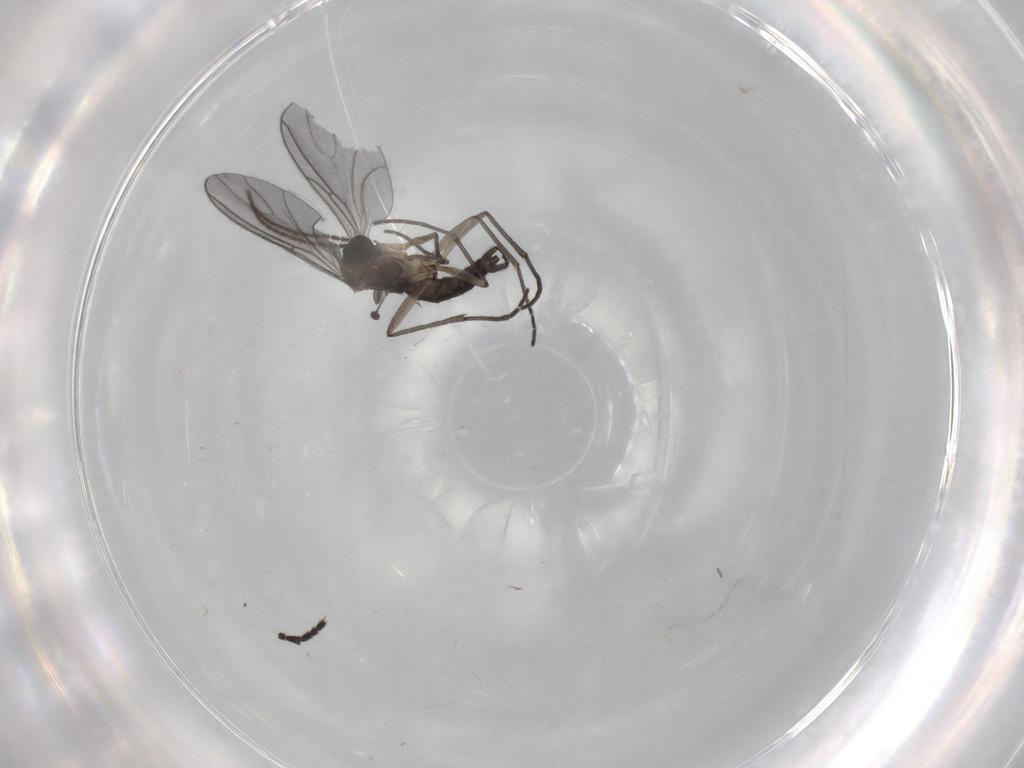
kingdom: Animalia
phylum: Arthropoda
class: Insecta
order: Diptera
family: Sciaridae
